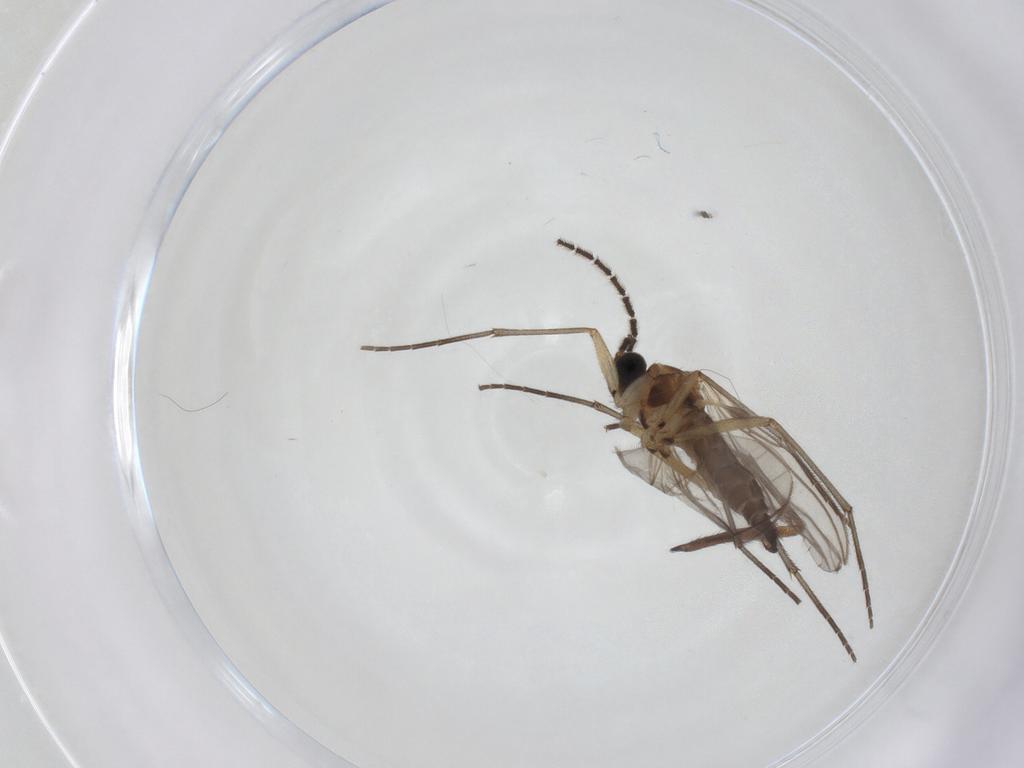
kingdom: Animalia
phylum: Arthropoda
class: Insecta
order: Diptera
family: Sciaridae
